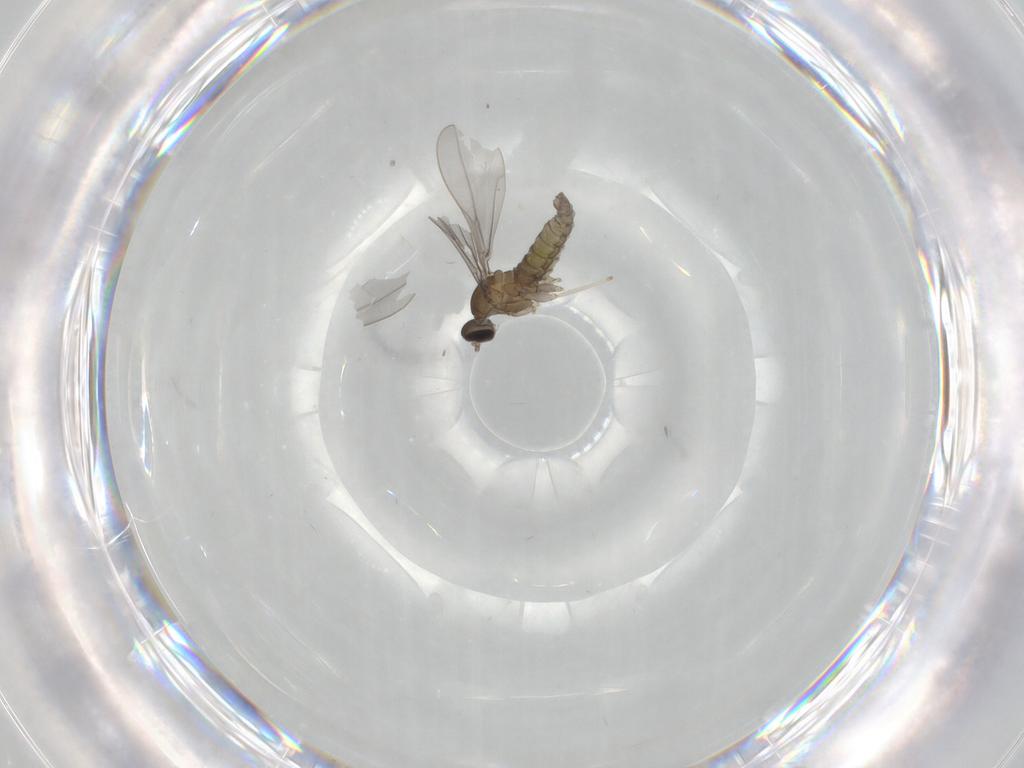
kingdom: Animalia
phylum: Arthropoda
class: Insecta
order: Diptera
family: Cecidomyiidae
